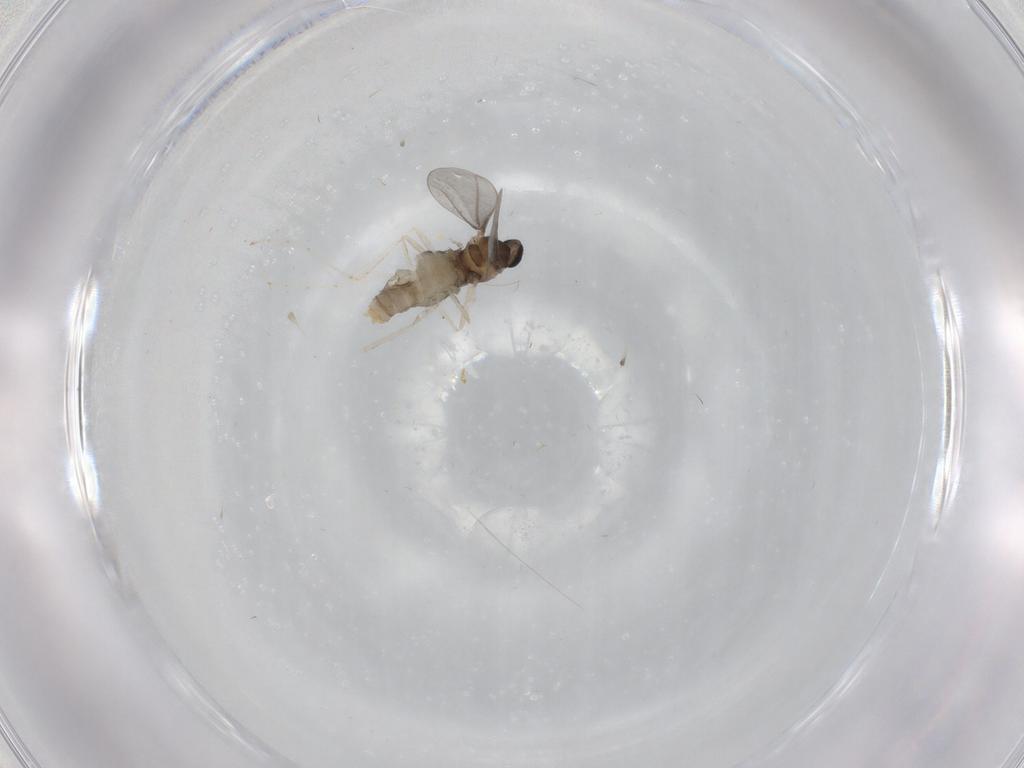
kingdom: Animalia
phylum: Arthropoda
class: Insecta
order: Diptera
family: Cecidomyiidae
